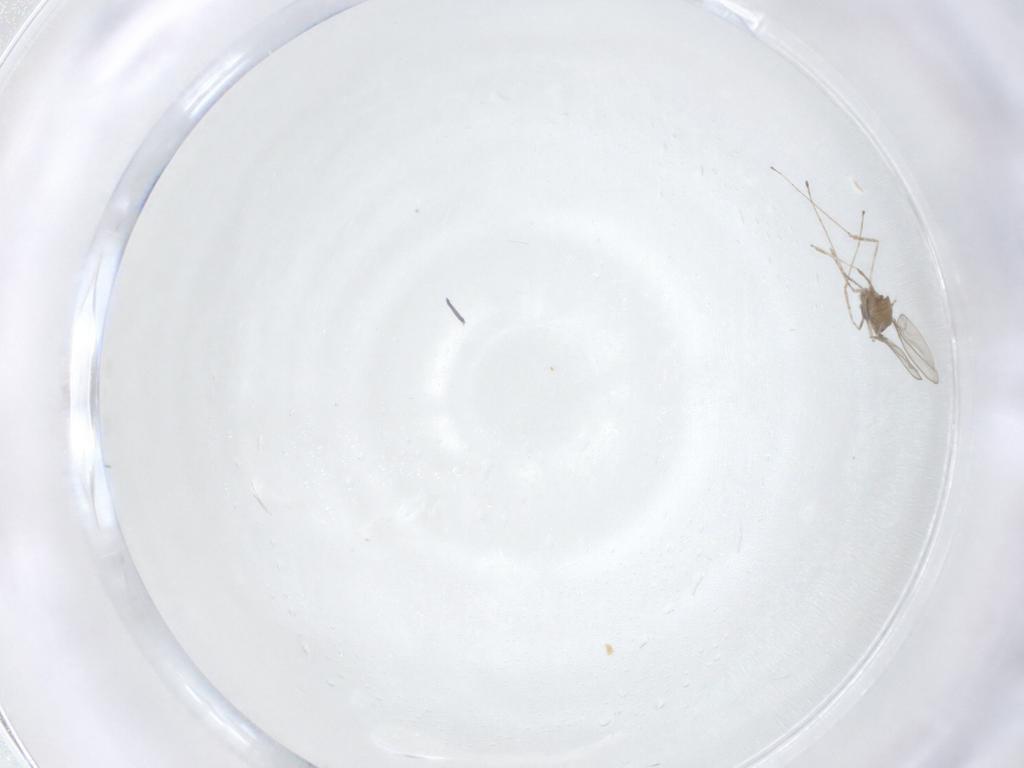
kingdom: Animalia
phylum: Arthropoda
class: Insecta
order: Diptera
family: Cecidomyiidae
